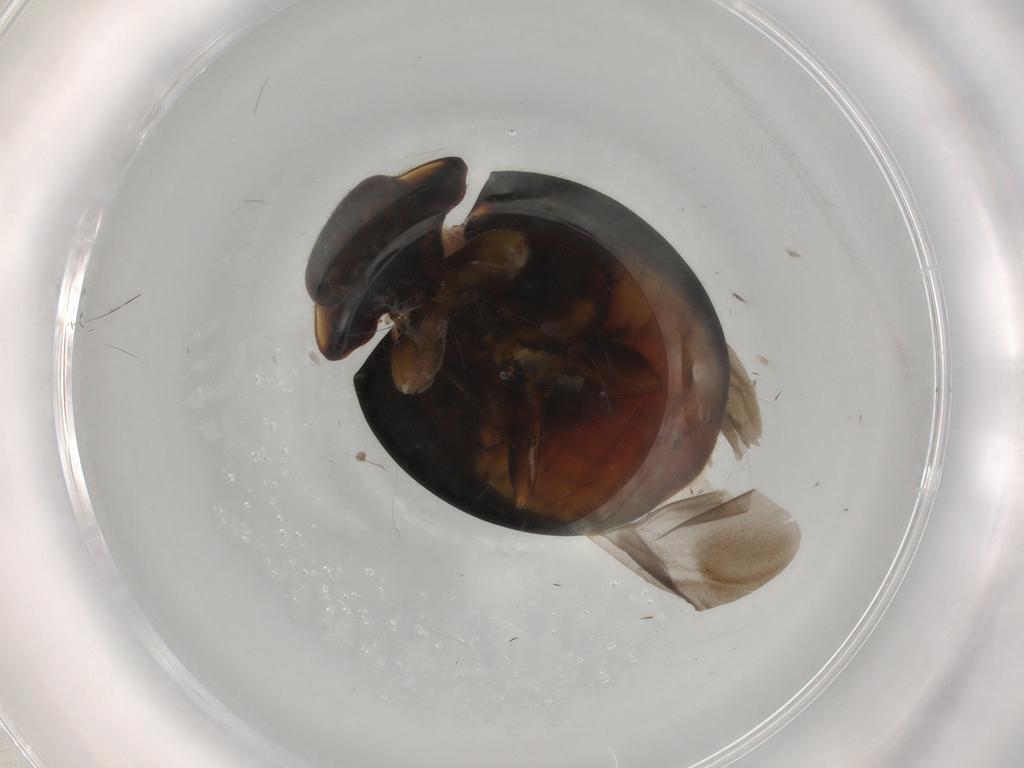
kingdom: Animalia
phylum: Arthropoda
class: Insecta
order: Coleoptera
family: Coccinellidae
